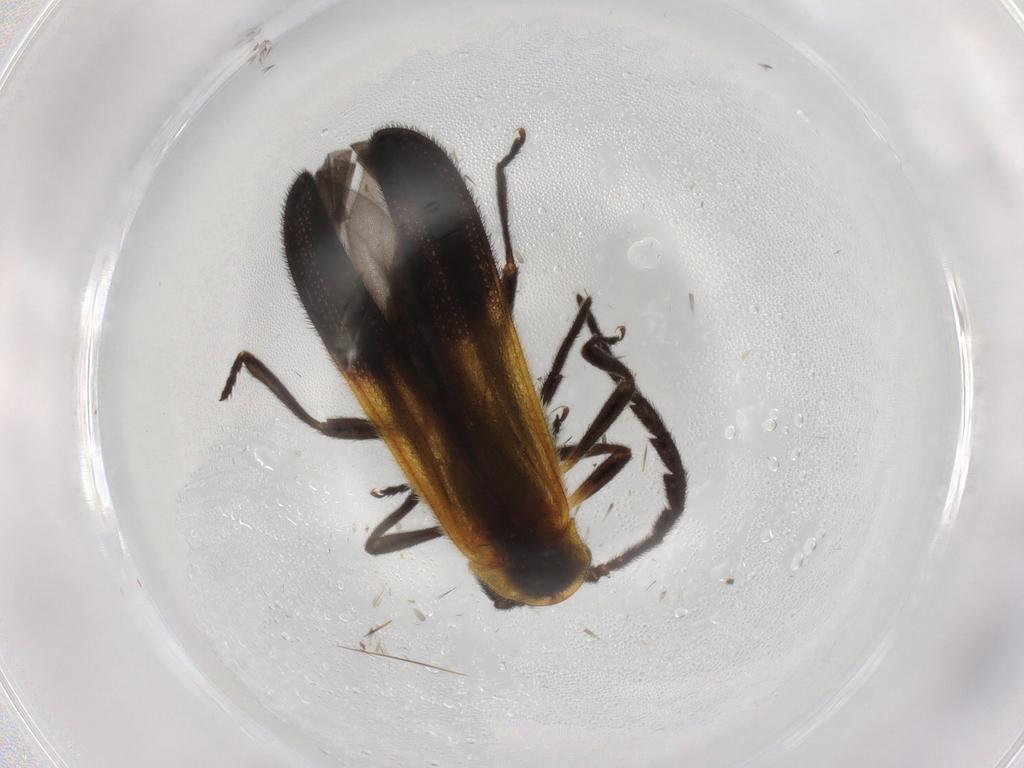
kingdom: Animalia
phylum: Arthropoda
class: Insecta
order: Coleoptera
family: Lycidae
